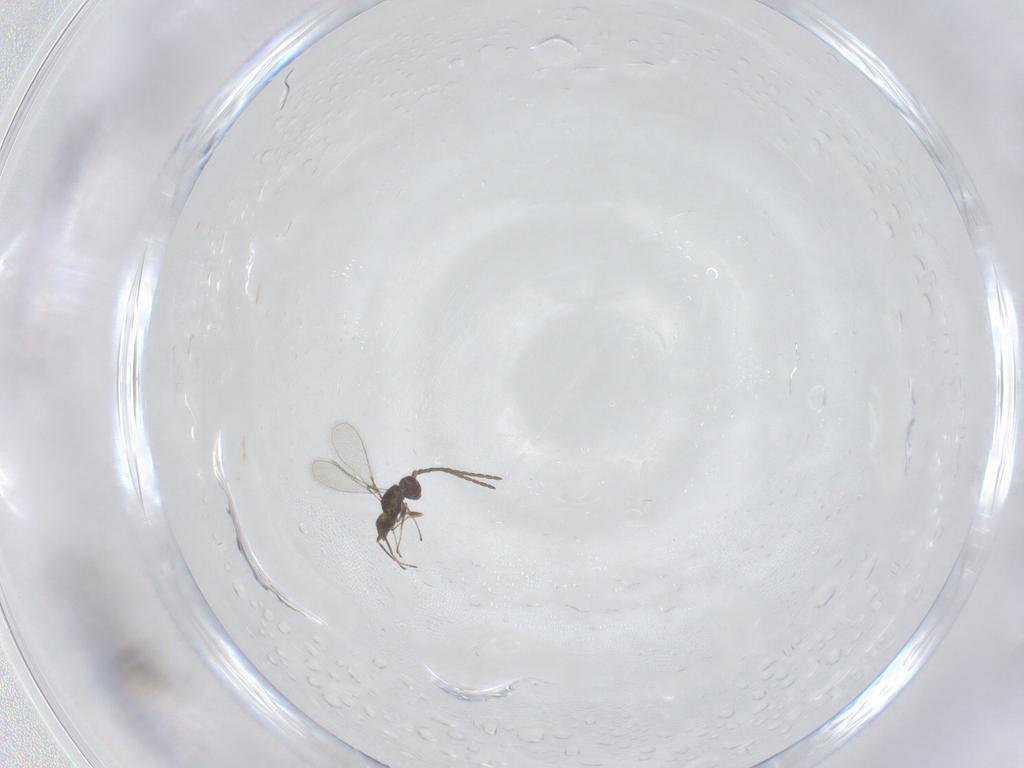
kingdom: Animalia
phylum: Arthropoda
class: Insecta
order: Hymenoptera
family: Mymaridae
